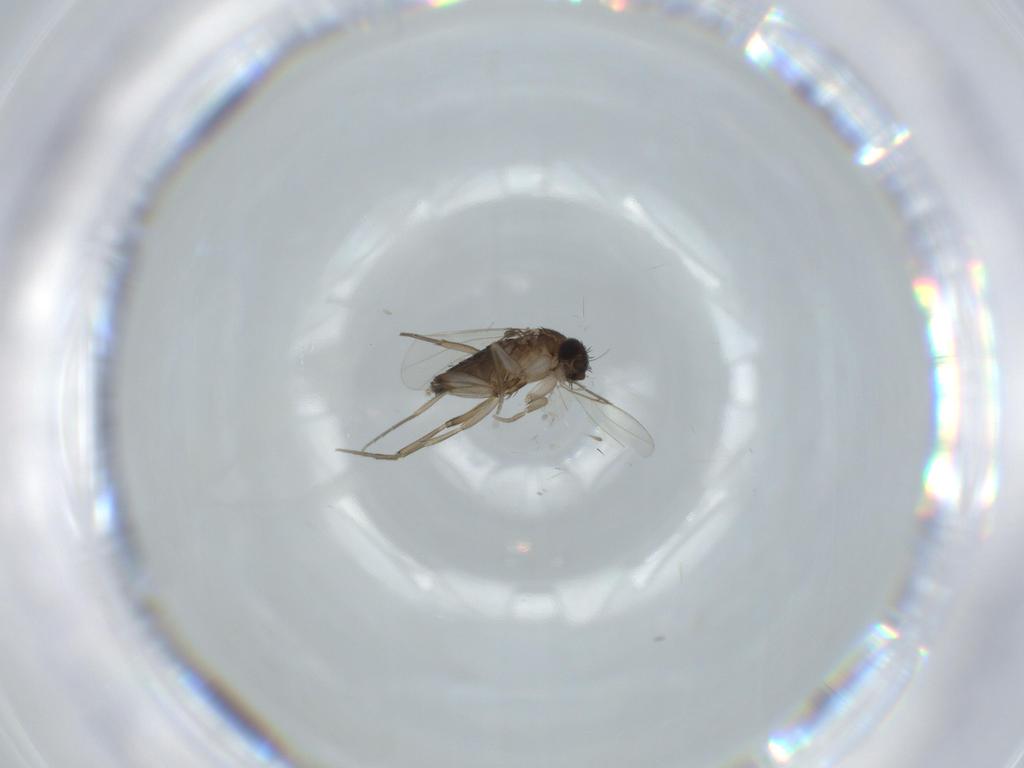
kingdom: Animalia
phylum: Arthropoda
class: Insecta
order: Diptera
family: Phoridae
